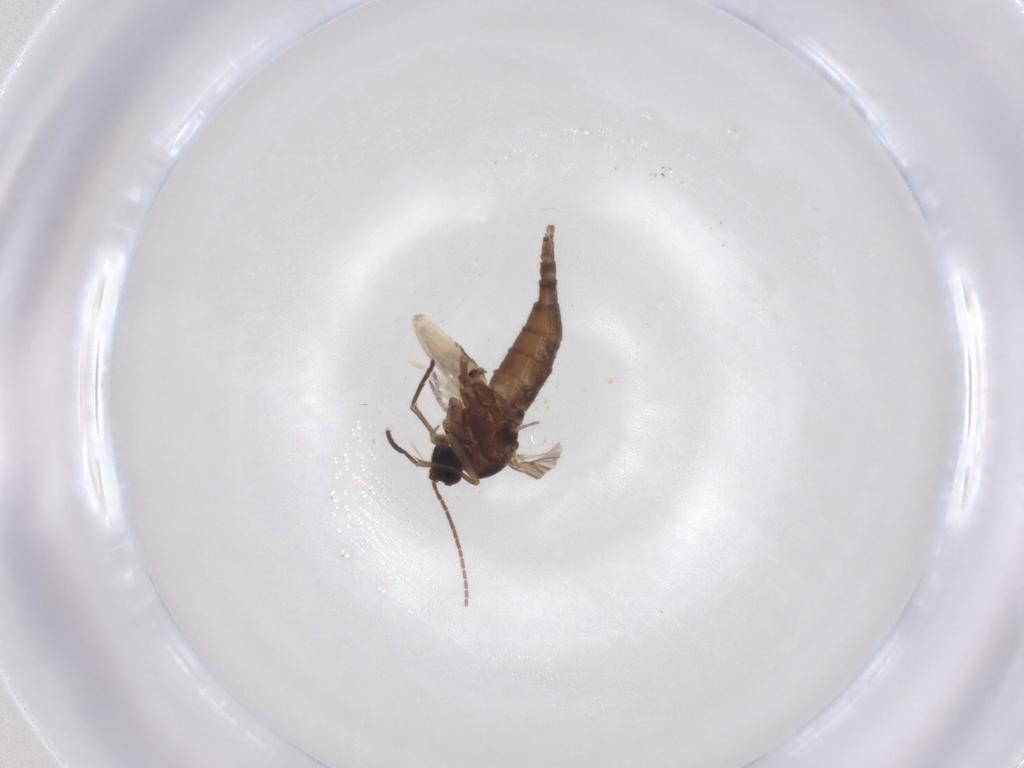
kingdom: Animalia
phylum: Arthropoda
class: Insecta
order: Diptera
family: Sciaridae
